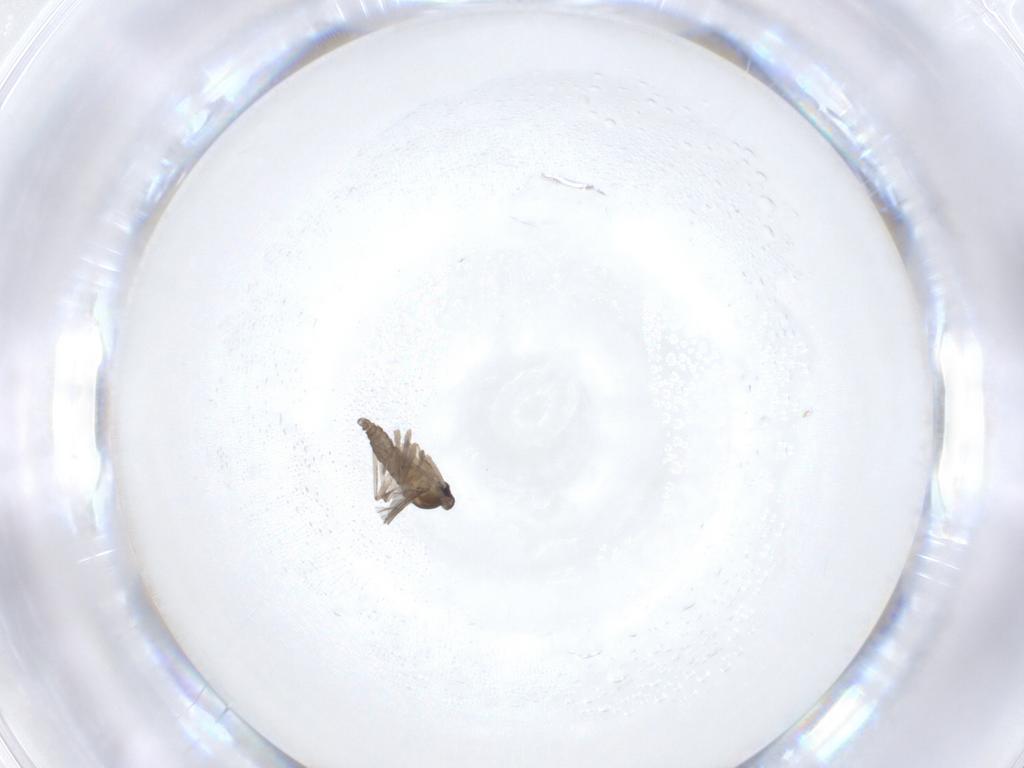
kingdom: Animalia
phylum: Arthropoda
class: Insecta
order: Diptera
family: Cecidomyiidae
